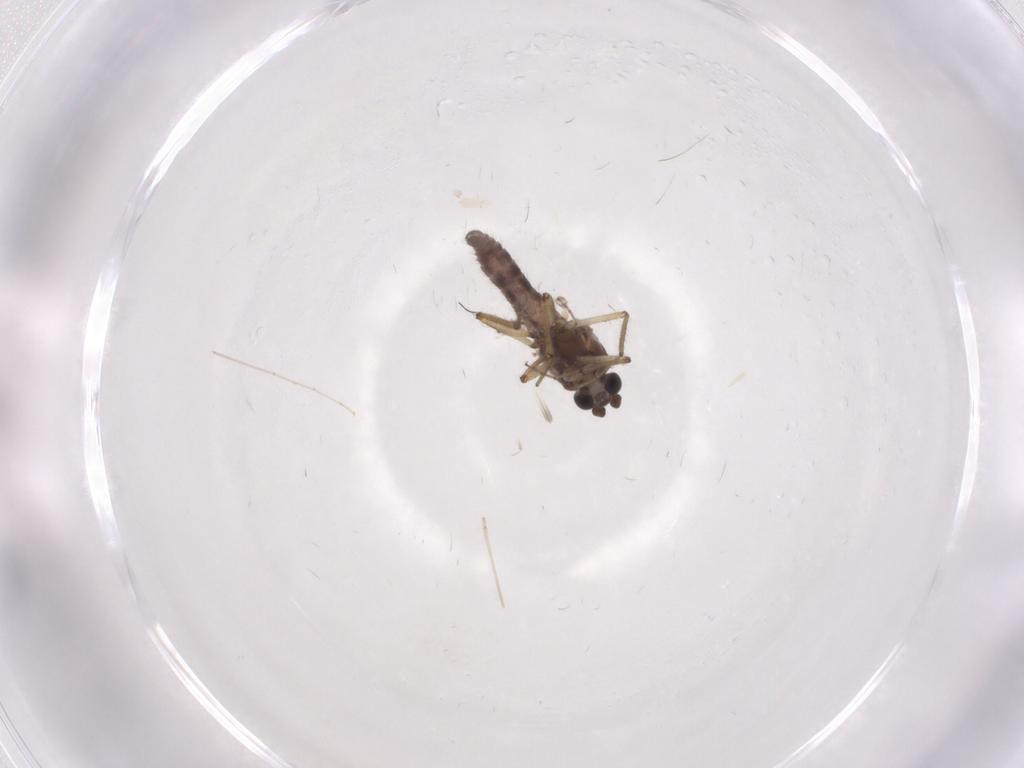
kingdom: Animalia
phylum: Arthropoda
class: Insecta
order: Diptera
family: Ceratopogonidae
